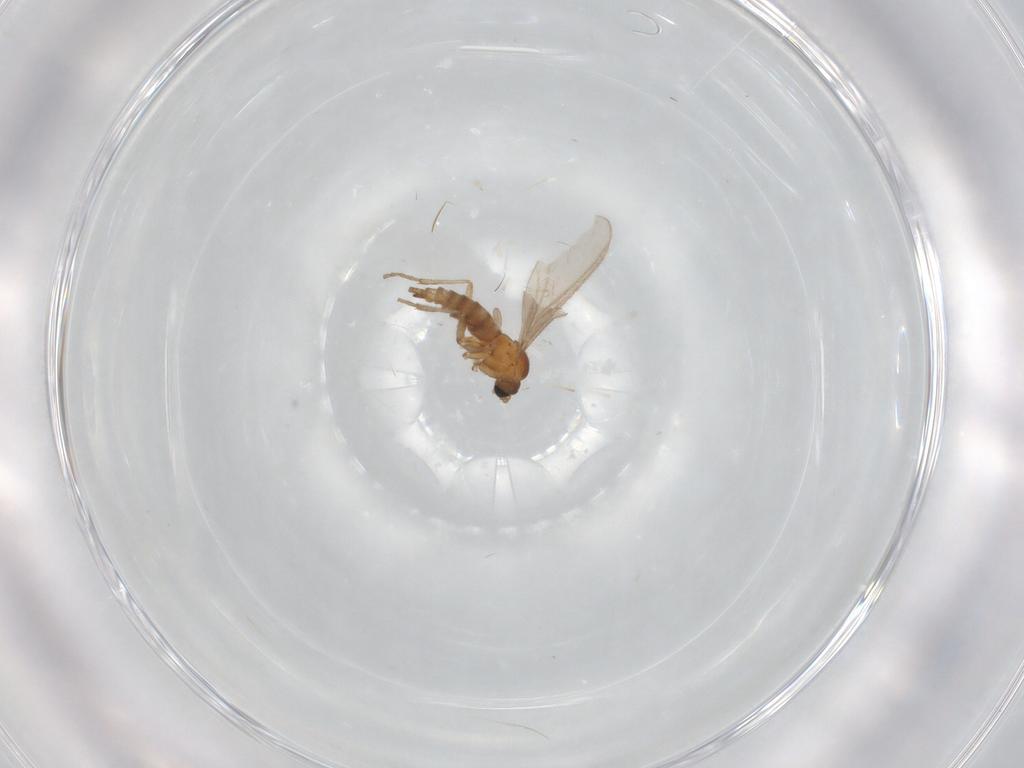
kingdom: Animalia
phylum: Arthropoda
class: Insecta
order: Diptera
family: Sciaridae
